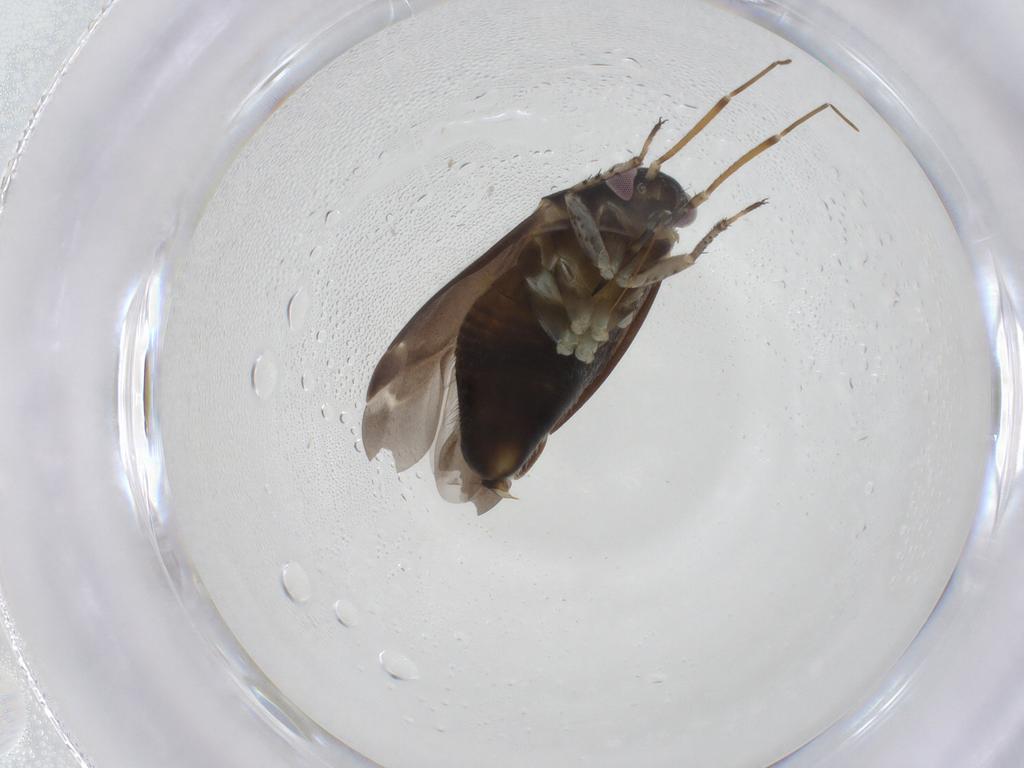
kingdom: Animalia
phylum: Arthropoda
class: Insecta
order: Hemiptera
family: Miridae
